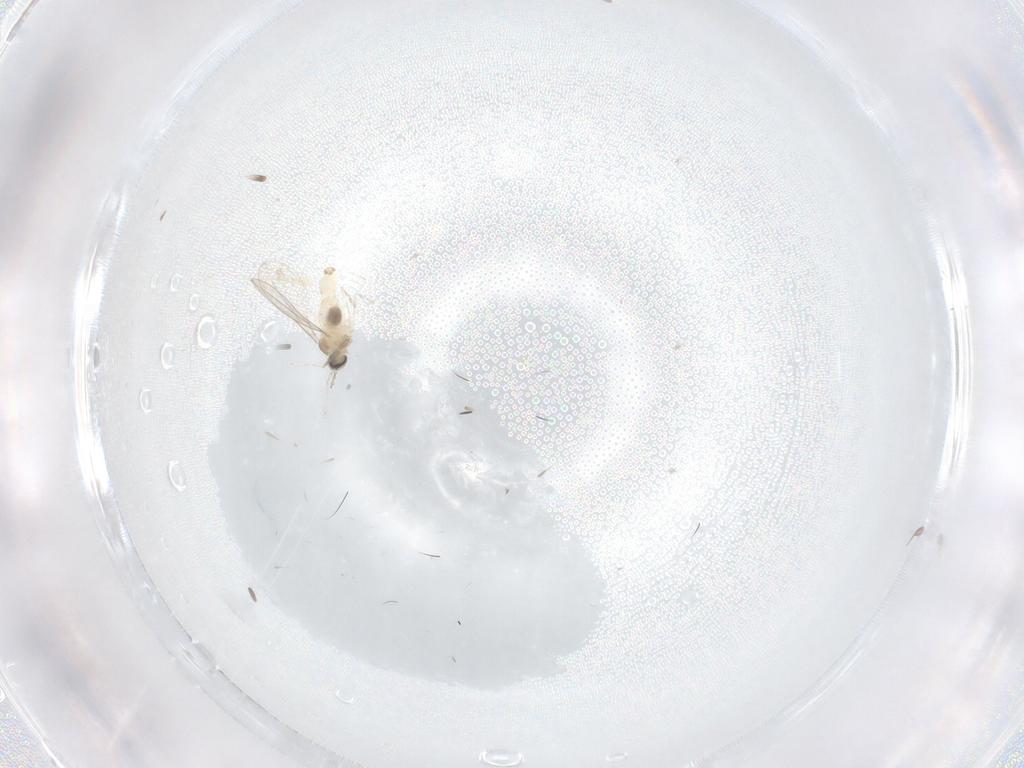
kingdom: Animalia
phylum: Arthropoda
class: Insecta
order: Diptera
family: Cecidomyiidae
